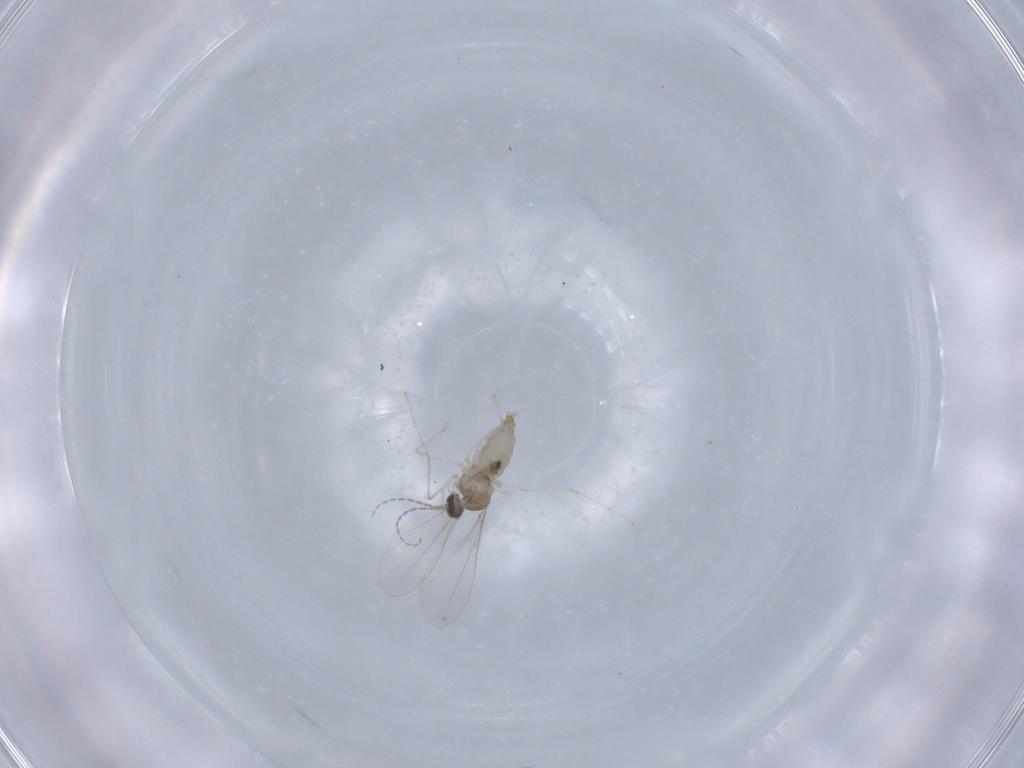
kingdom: Animalia
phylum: Arthropoda
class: Insecta
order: Diptera
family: Cecidomyiidae
